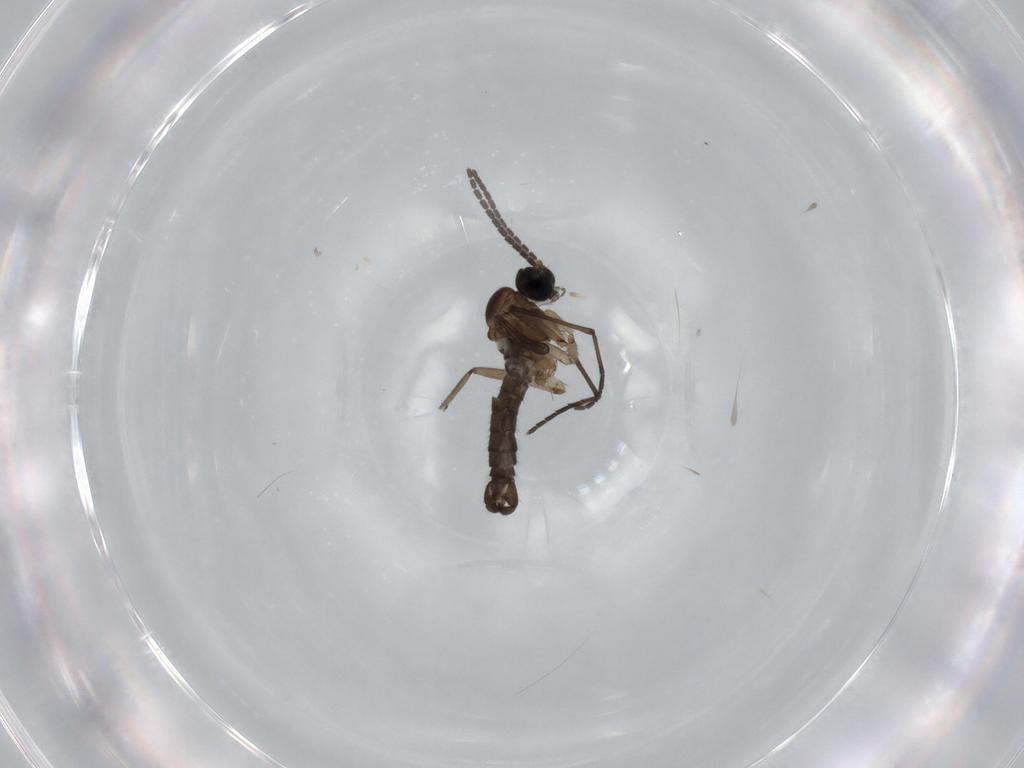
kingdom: Animalia
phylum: Arthropoda
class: Insecta
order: Diptera
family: Sciaridae
